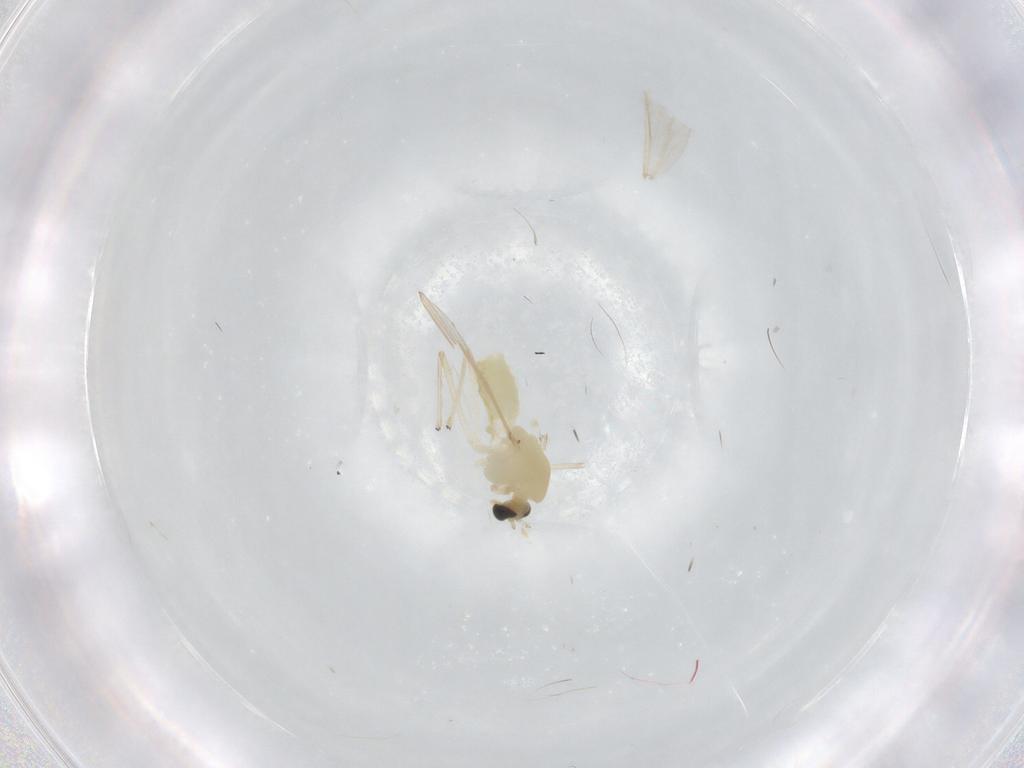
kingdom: Animalia
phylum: Arthropoda
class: Insecta
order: Diptera
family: Chironomidae
